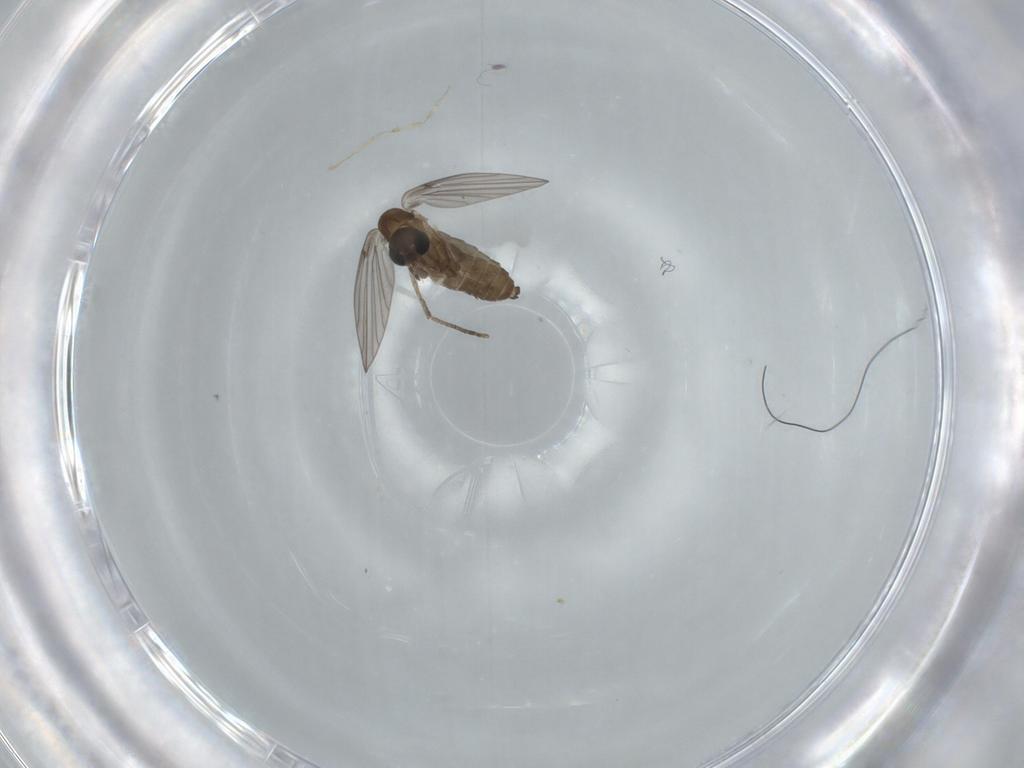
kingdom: Animalia
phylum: Arthropoda
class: Insecta
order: Diptera
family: Psychodidae
